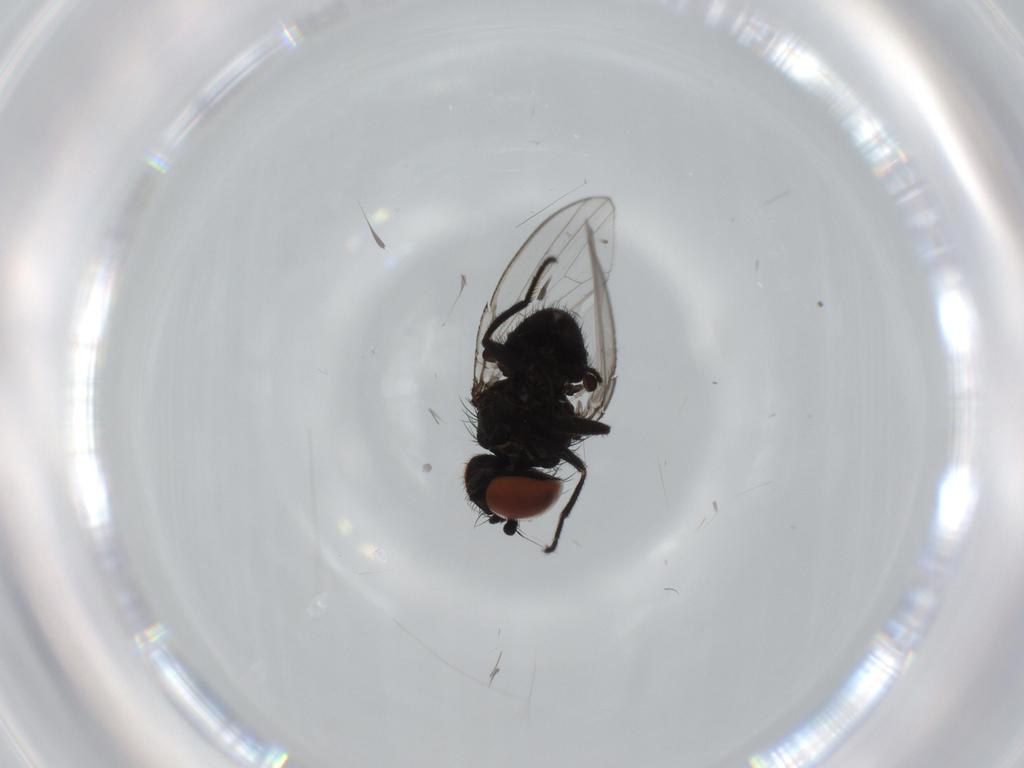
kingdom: Animalia
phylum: Arthropoda
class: Insecta
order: Diptera
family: Milichiidae
